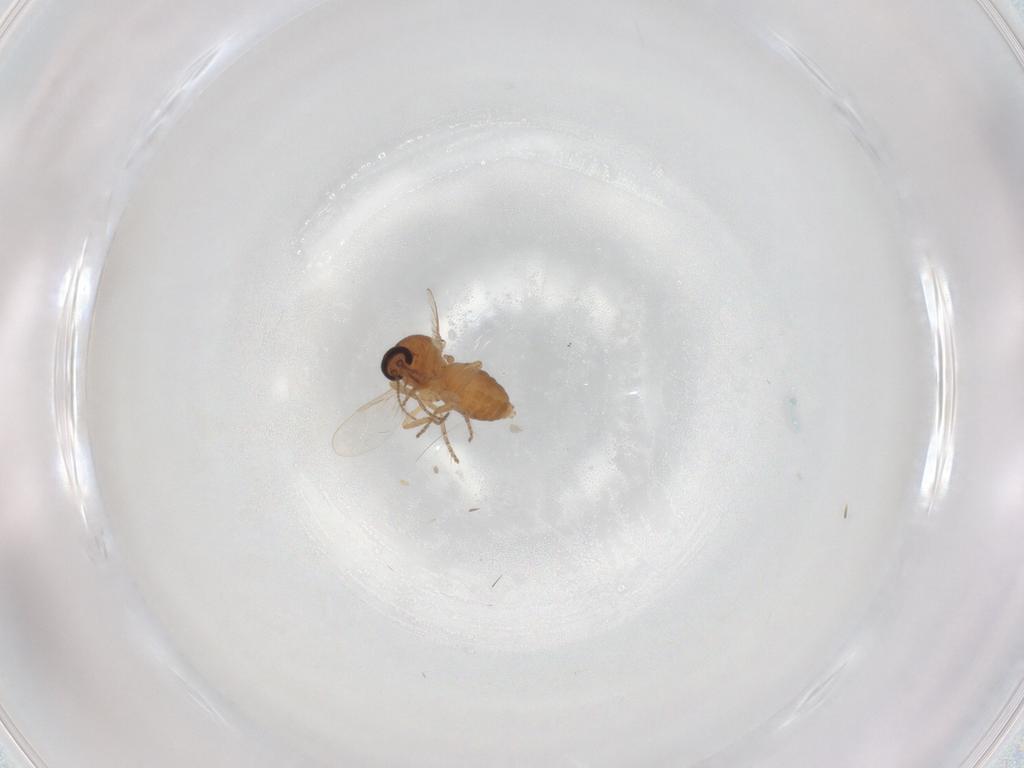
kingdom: Animalia
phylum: Arthropoda
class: Insecta
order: Diptera
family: Ceratopogonidae
